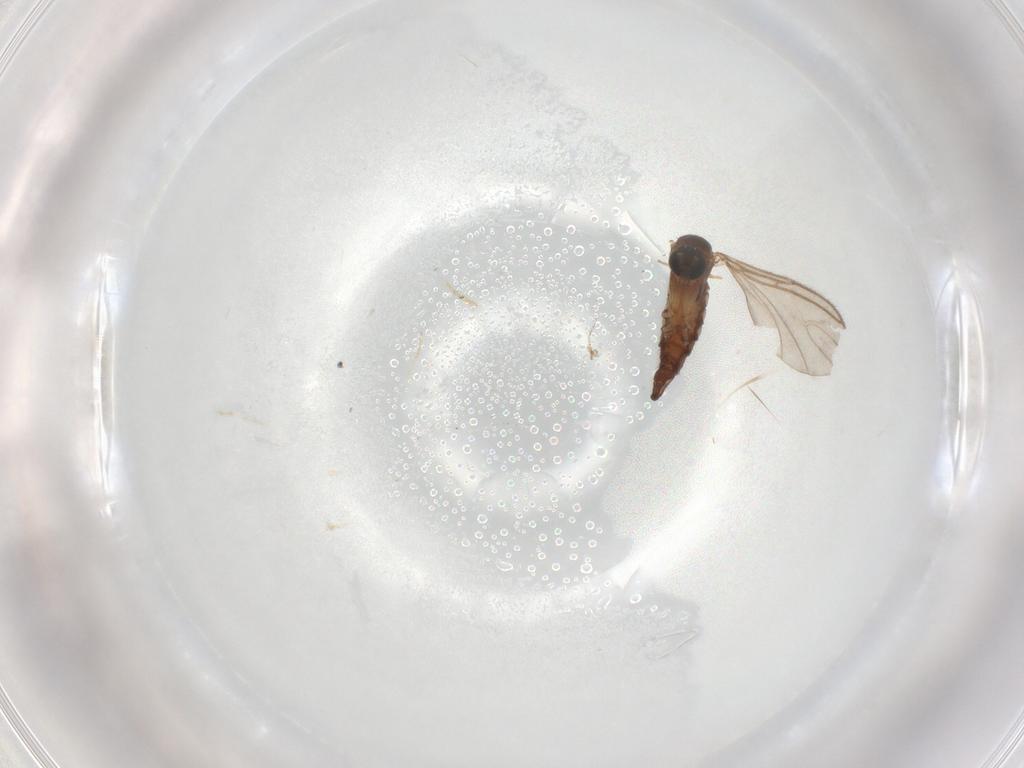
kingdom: Animalia
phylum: Arthropoda
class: Insecta
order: Diptera
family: Sciaridae
